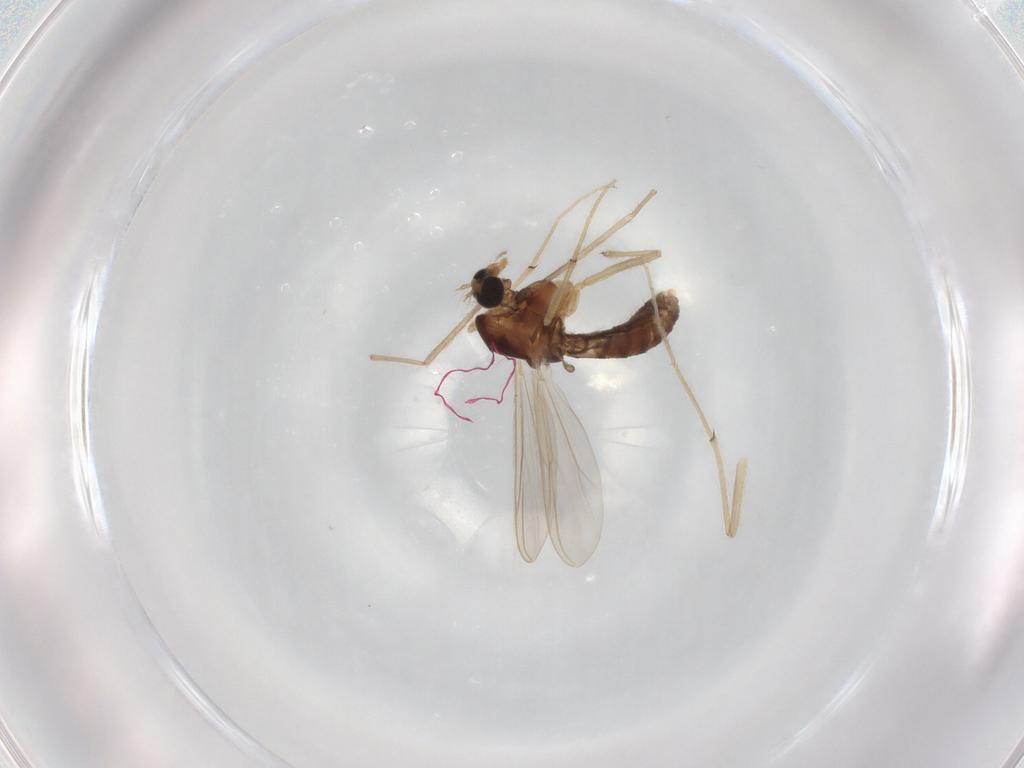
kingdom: Animalia
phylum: Arthropoda
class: Insecta
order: Diptera
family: Chironomidae
